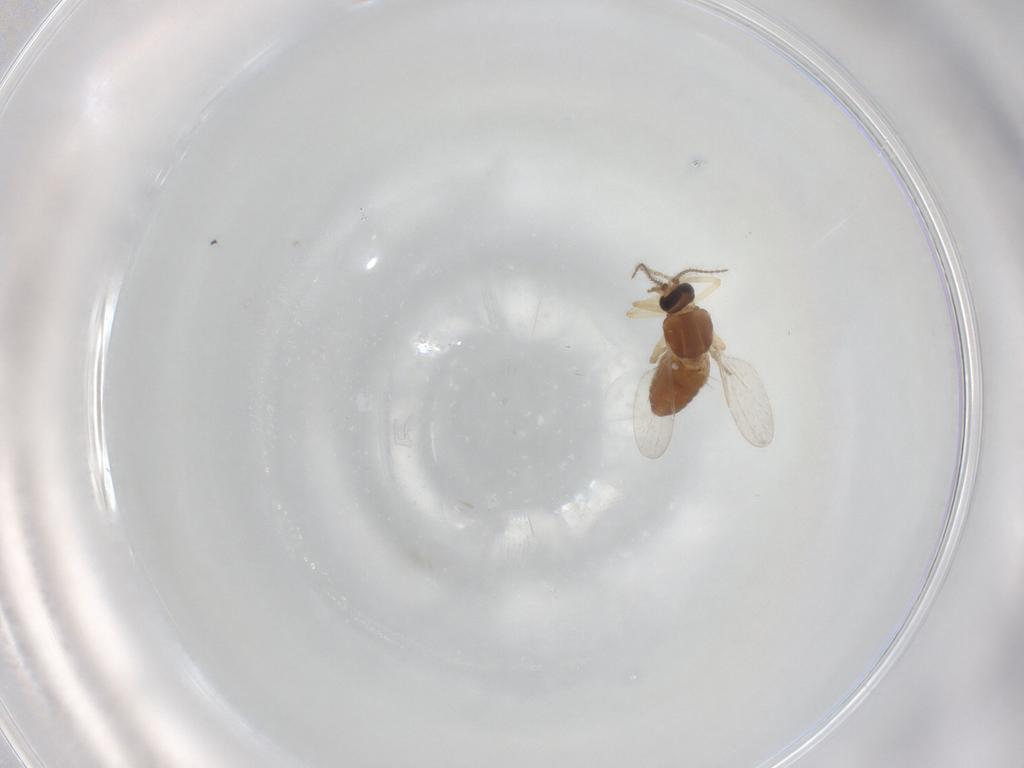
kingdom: Animalia
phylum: Arthropoda
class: Insecta
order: Diptera
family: Ceratopogonidae
